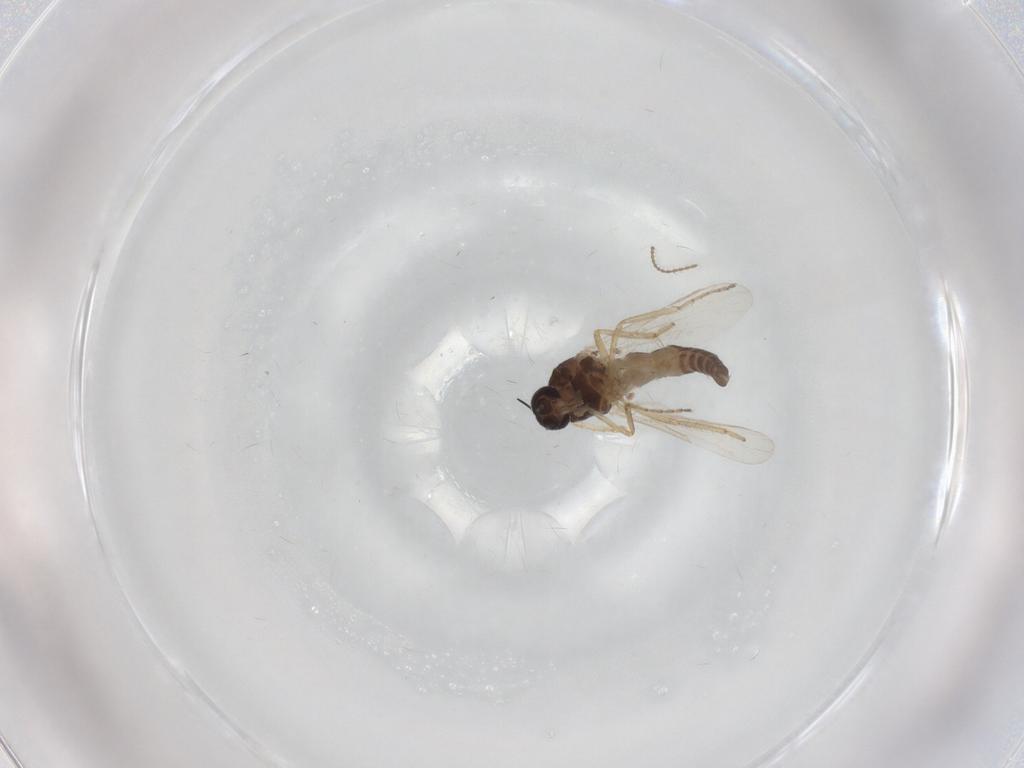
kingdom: Animalia
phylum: Arthropoda
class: Insecta
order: Diptera
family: Ceratopogonidae
